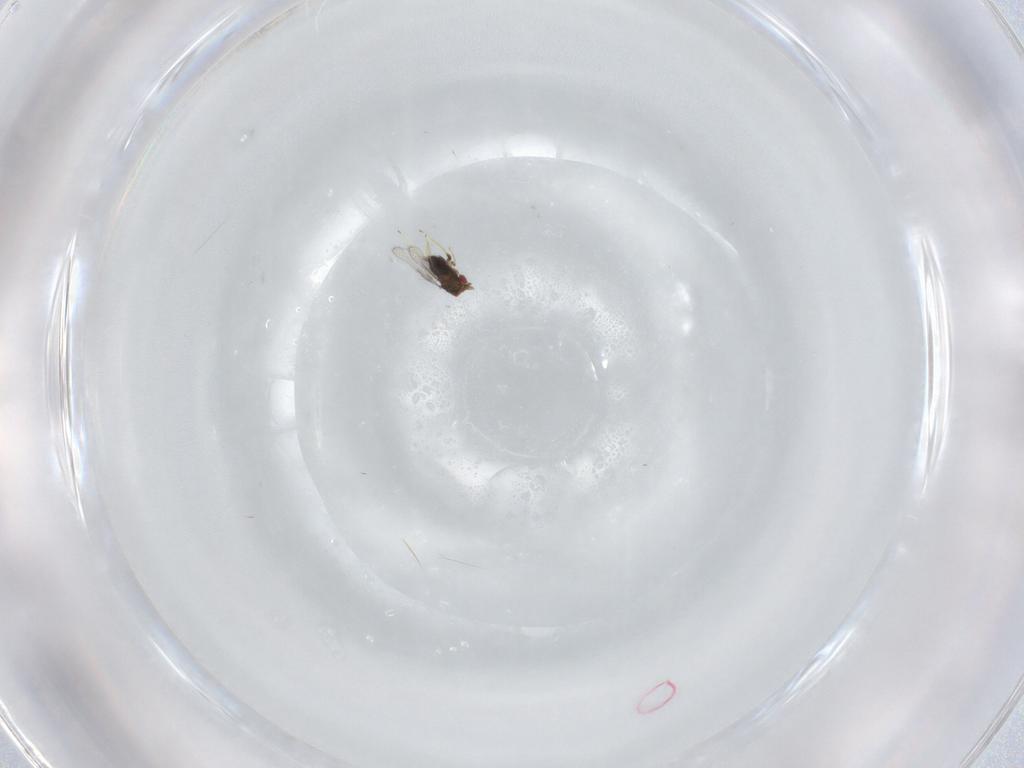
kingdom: Animalia
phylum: Arthropoda
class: Insecta
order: Hymenoptera
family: Trichogrammatidae
